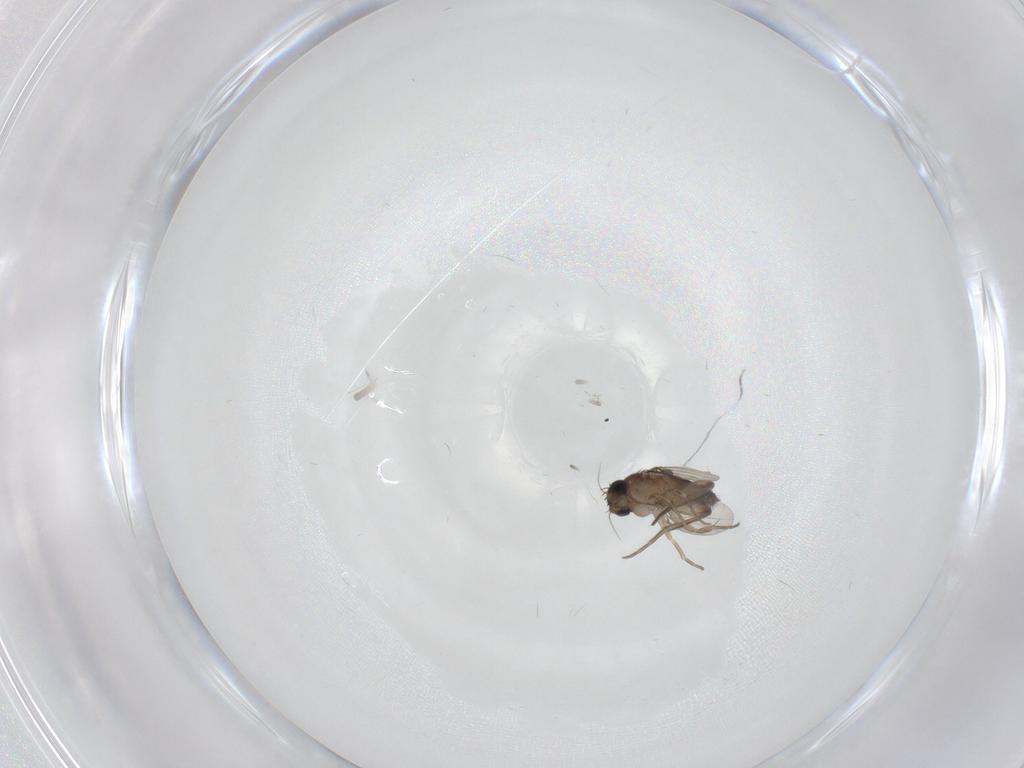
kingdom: Animalia
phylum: Arthropoda
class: Insecta
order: Diptera
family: Phoridae
